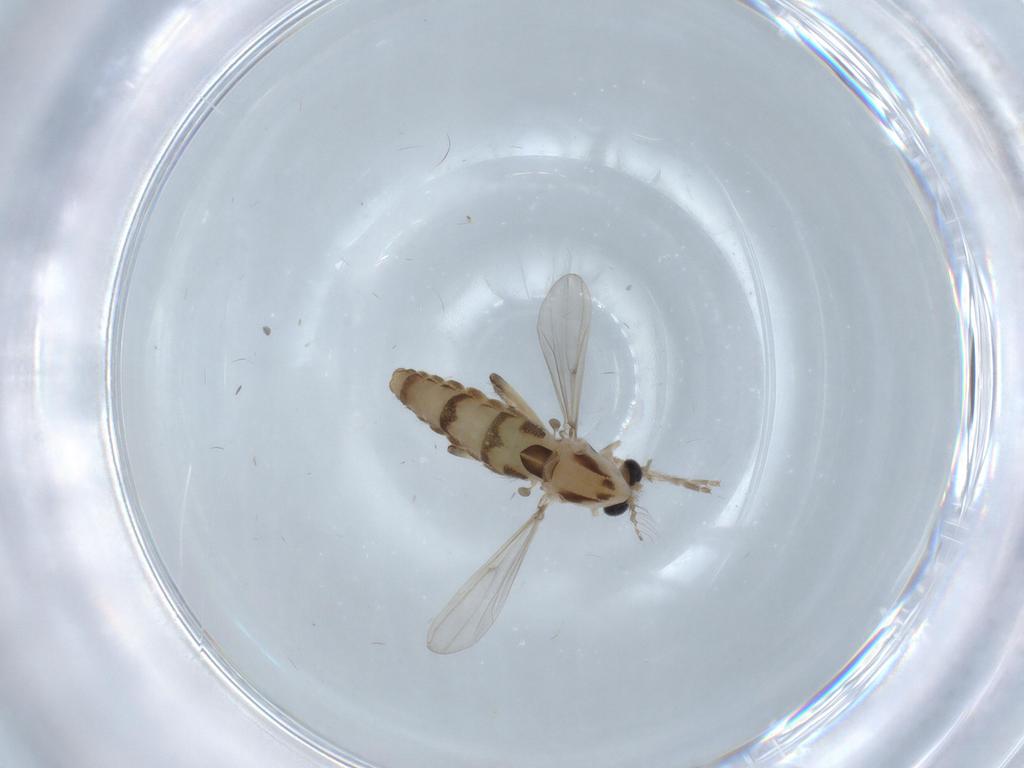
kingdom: Animalia
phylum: Arthropoda
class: Insecta
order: Diptera
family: Chironomidae
